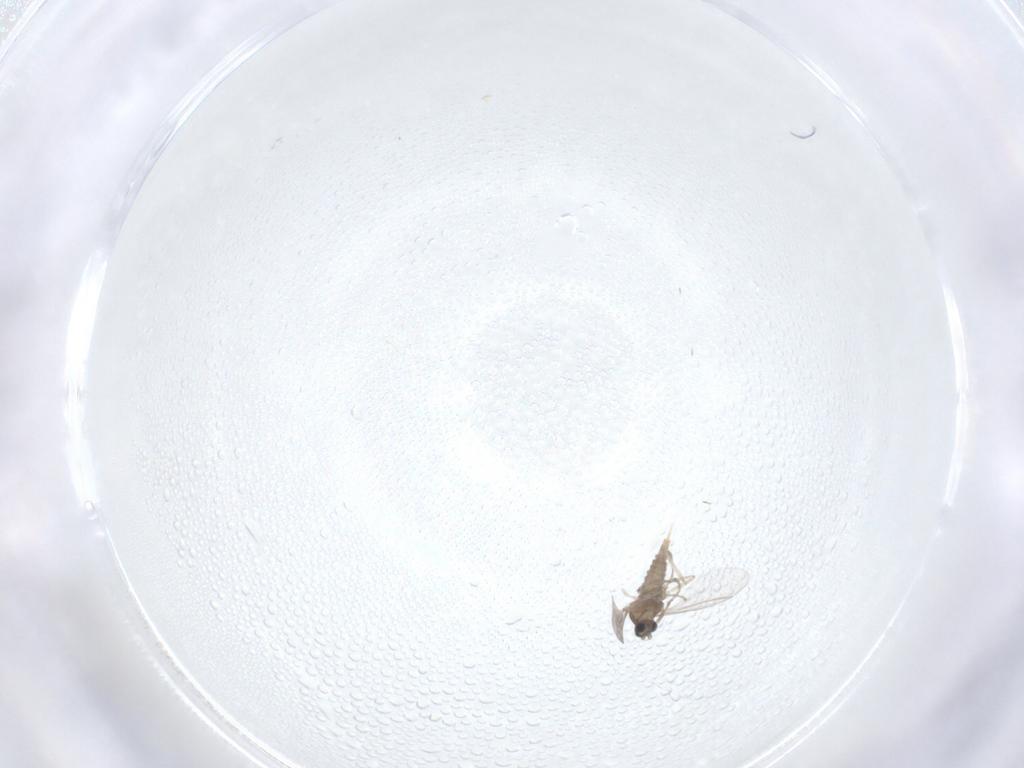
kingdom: Animalia
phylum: Arthropoda
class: Insecta
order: Diptera
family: Cecidomyiidae
